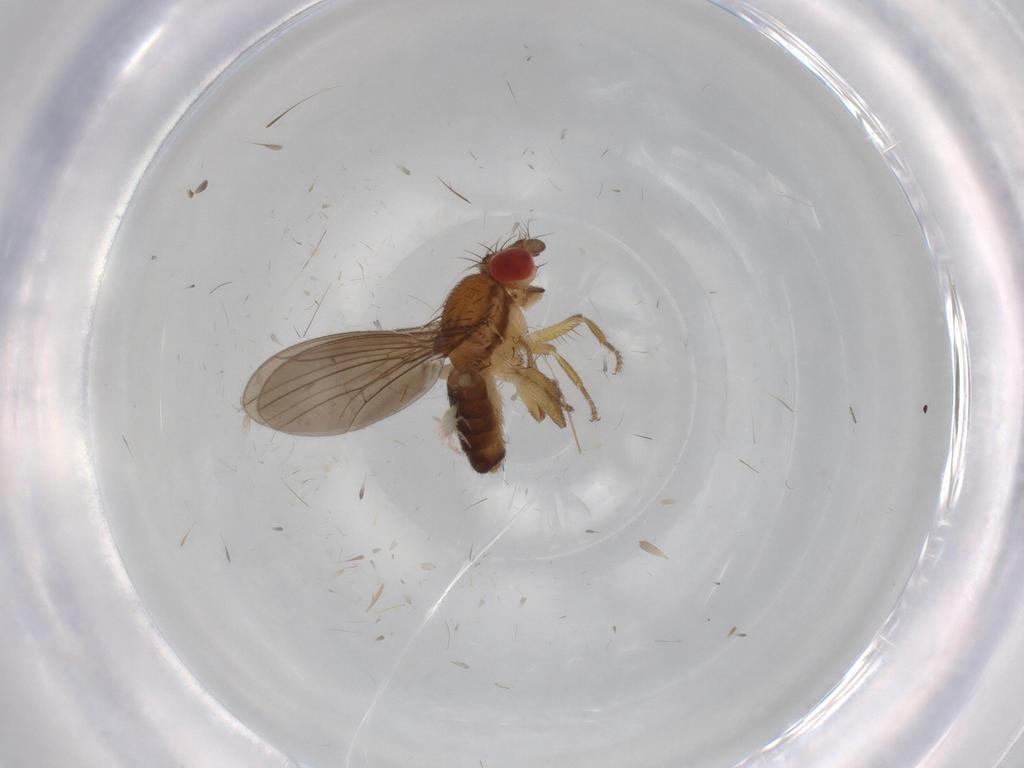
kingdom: Animalia
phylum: Arthropoda
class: Insecta
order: Diptera
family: Drosophilidae
